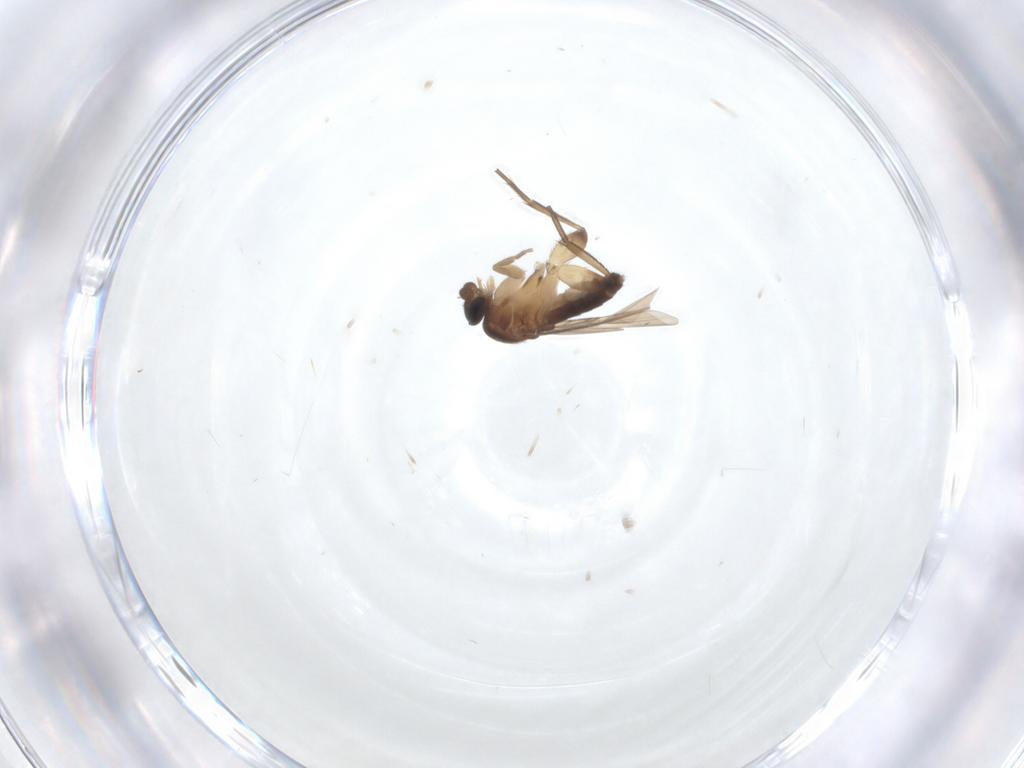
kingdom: Animalia
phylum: Arthropoda
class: Insecta
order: Diptera
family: Phoridae
